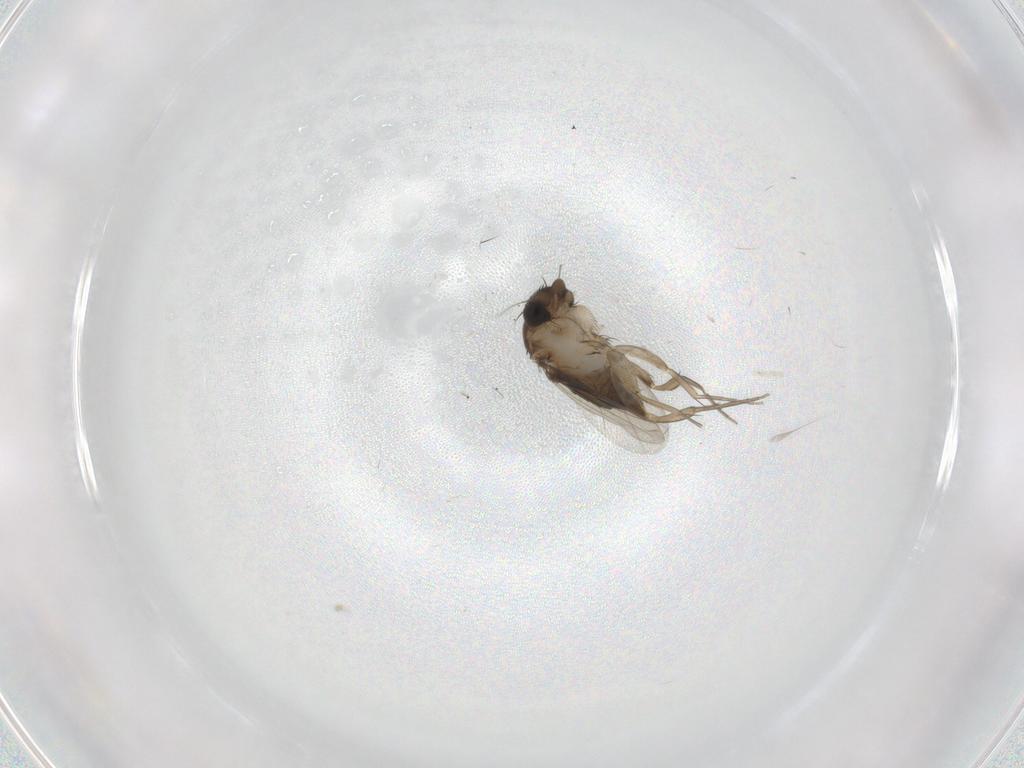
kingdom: Animalia
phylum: Arthropoda
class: Insecta
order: Diptera
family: Phoridae
